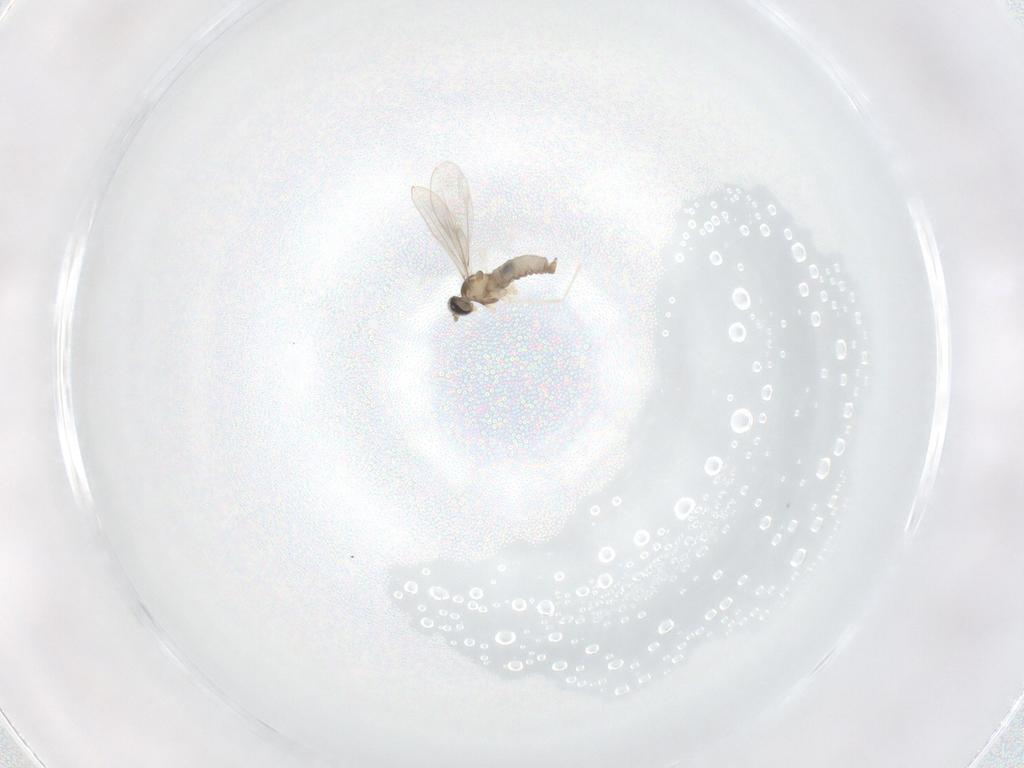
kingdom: Animalia
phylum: Arthropoda
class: Insecta
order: Diptera
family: Cecidomyiidae
